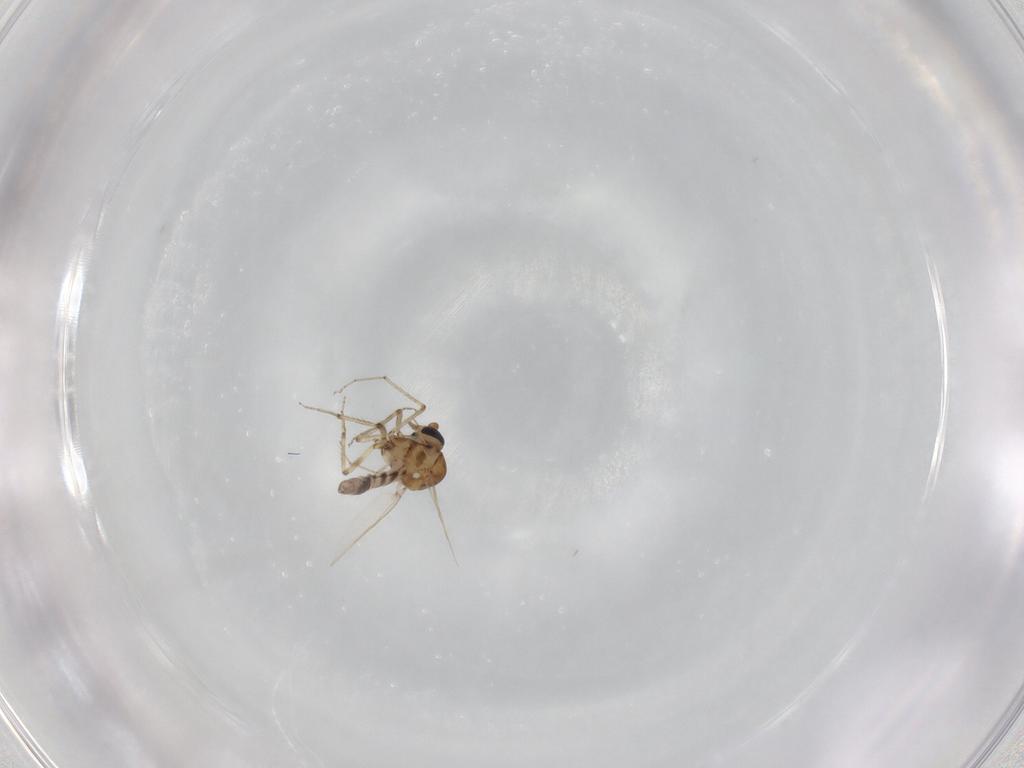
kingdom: Animalia
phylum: Arthropoda
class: Insecta
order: Diptera
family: Ceratopogonidae
